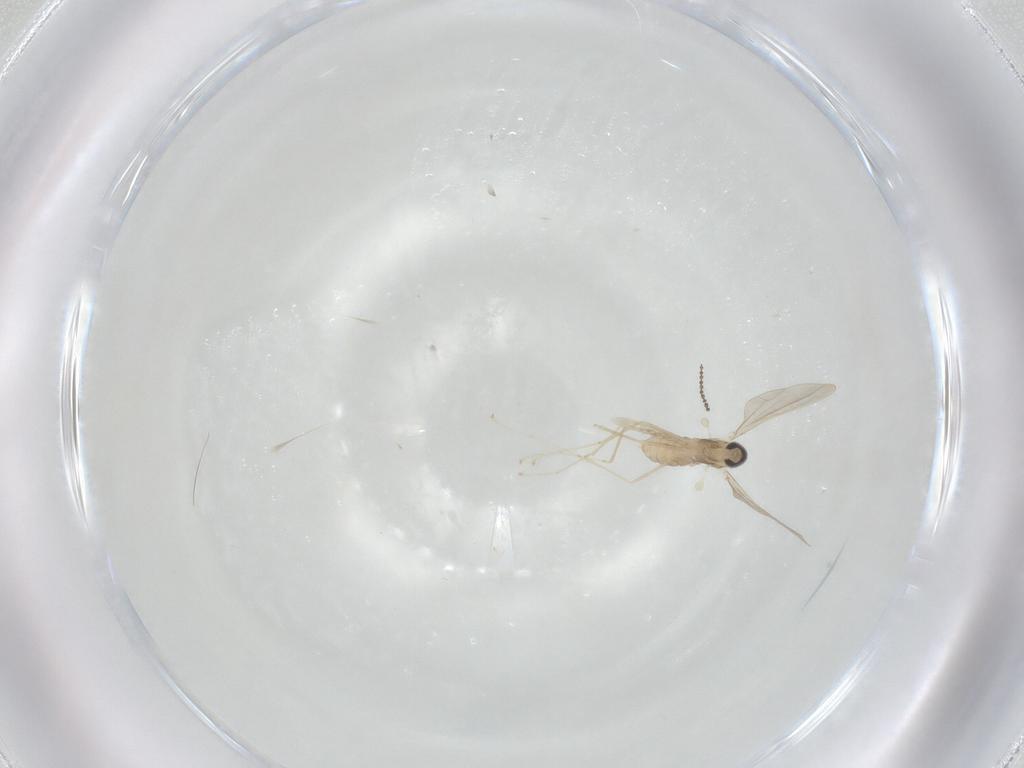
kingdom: Animalia
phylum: Arthropoda
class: Insecta
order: Diptera
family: Cecidomyiidae
